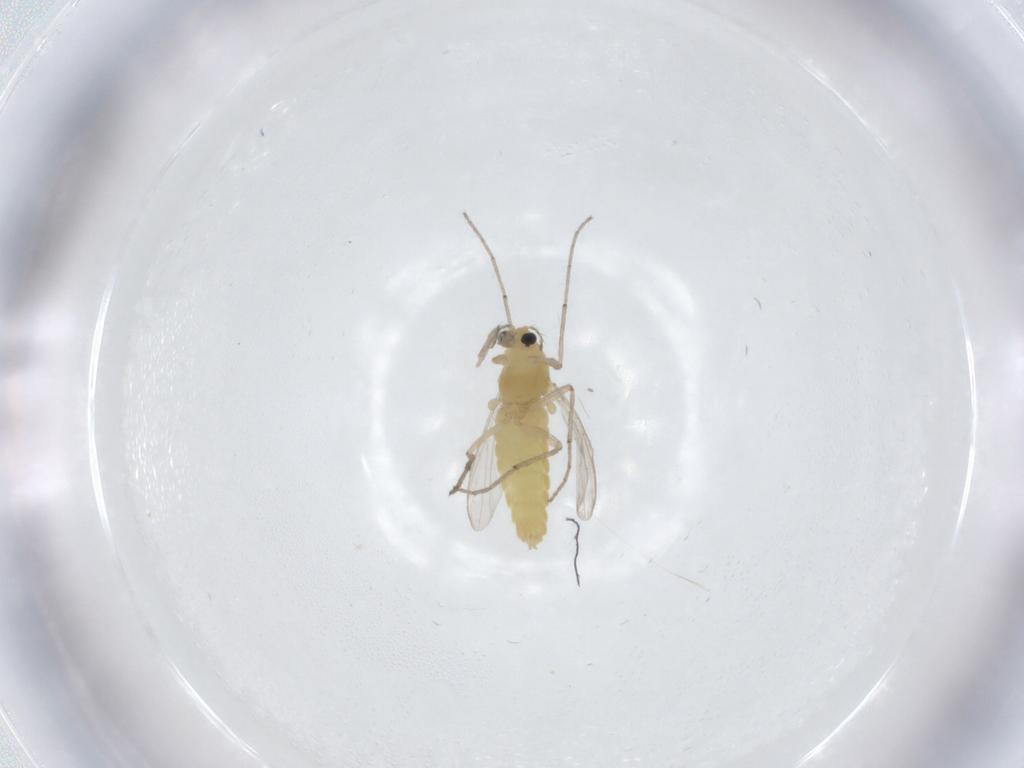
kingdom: Animalia
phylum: Arthropoda
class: Insecta
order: Diptera
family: Chironomidae
